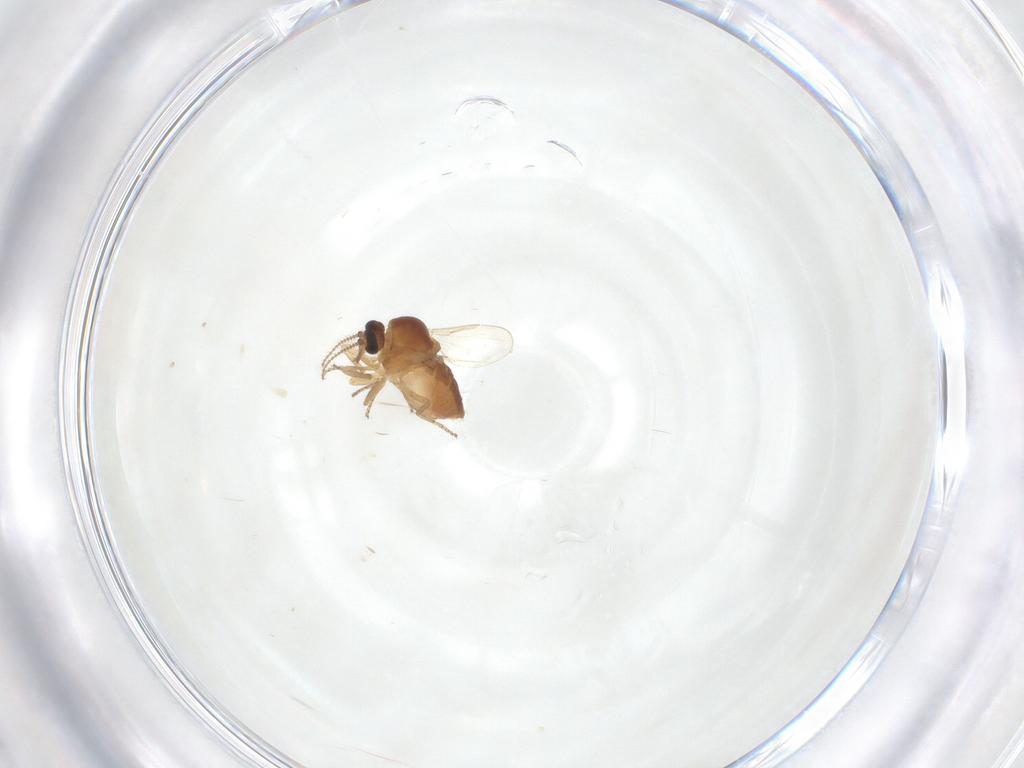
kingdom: Animalia
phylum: Arthropoda
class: Insecta
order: Diptera
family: Ceratopogonidae
